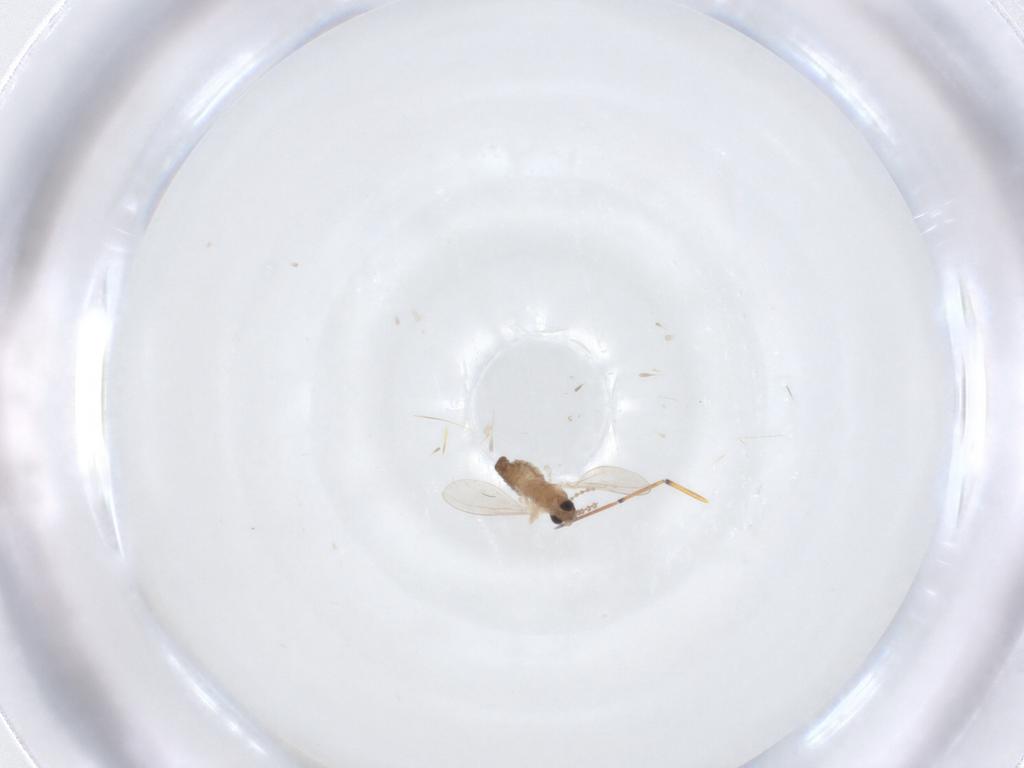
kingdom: Animalia
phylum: Arthropoda
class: Insecta
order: Diptera
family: Cecidomyiidae
